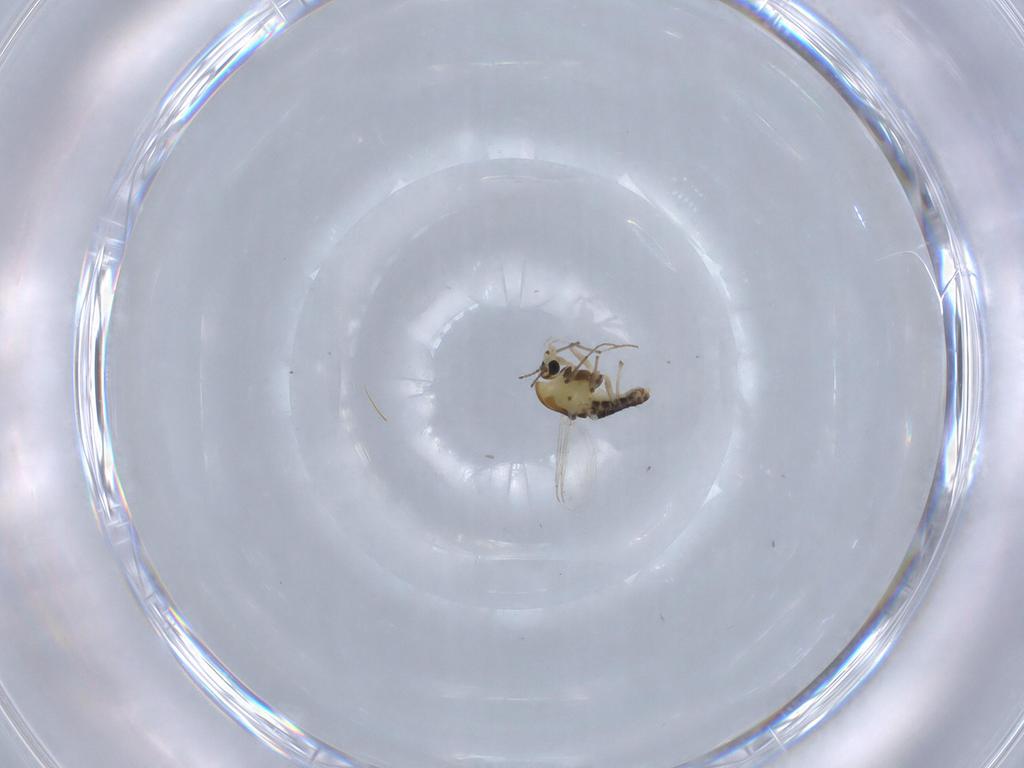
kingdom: Animalia
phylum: Arthropoda
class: Insecta
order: Diptera
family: Chironomidae
